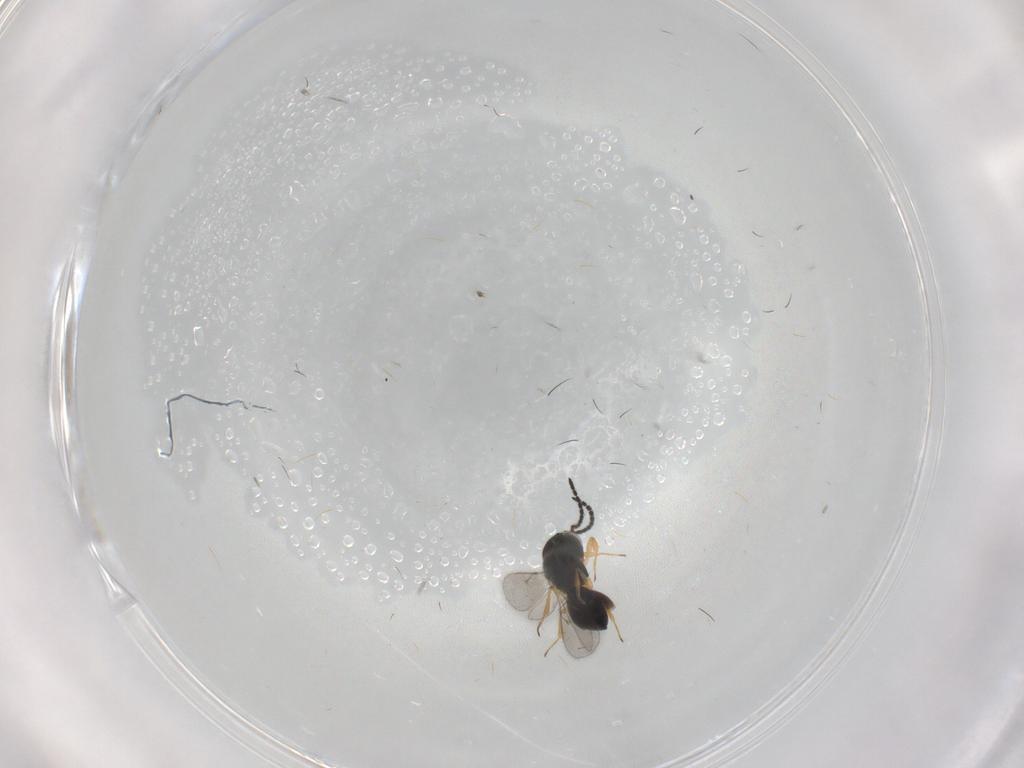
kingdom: Animalia
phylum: Arthropoda
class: Insecta
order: Hymenoptera
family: Scelionidae
